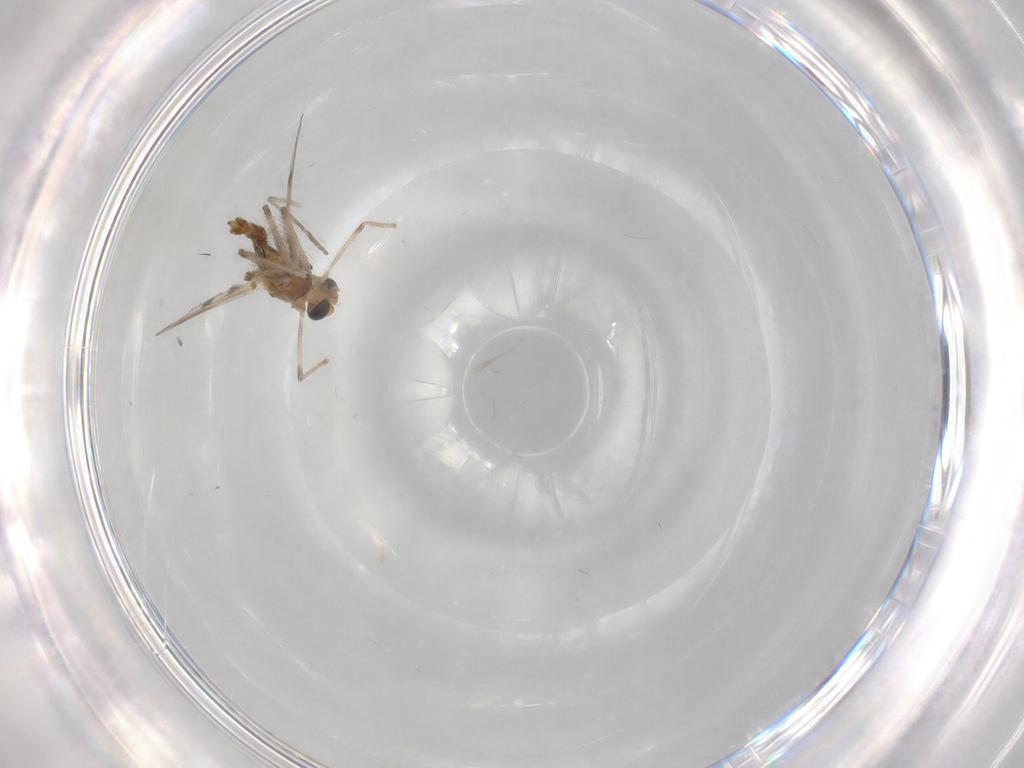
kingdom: Animalia
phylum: Arthropoda
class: Insecta
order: Diptera
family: Chironomidae
